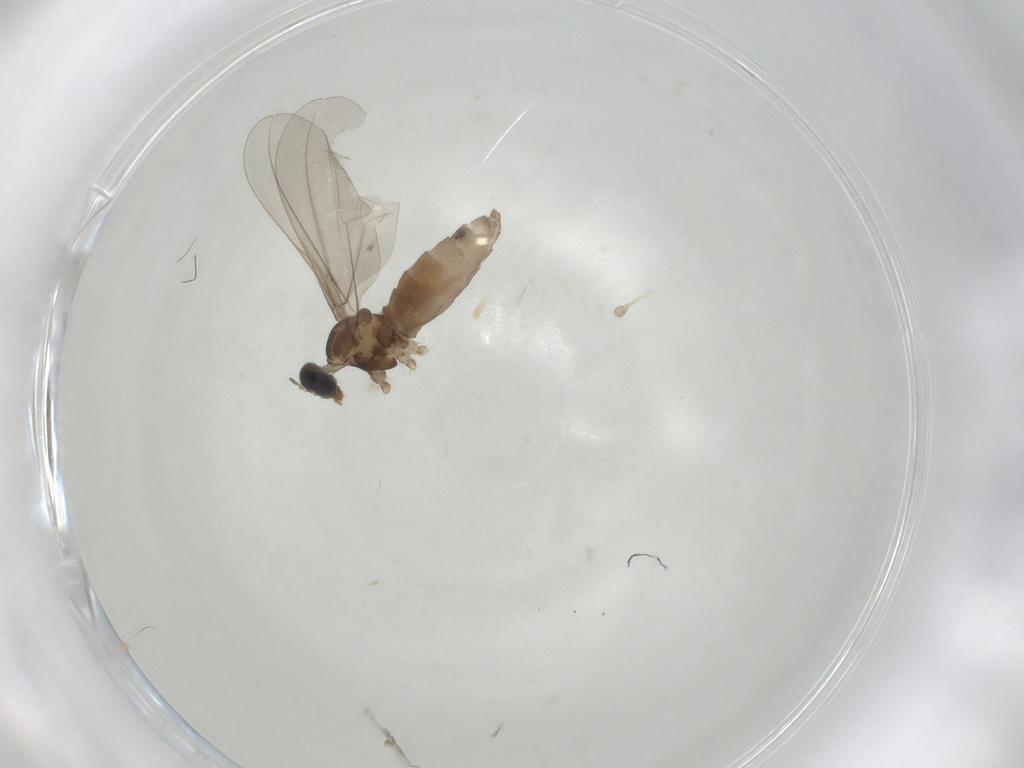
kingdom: Animalia
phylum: Arthropoda
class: Insecta
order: Diptera
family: Cecidomyiidae
